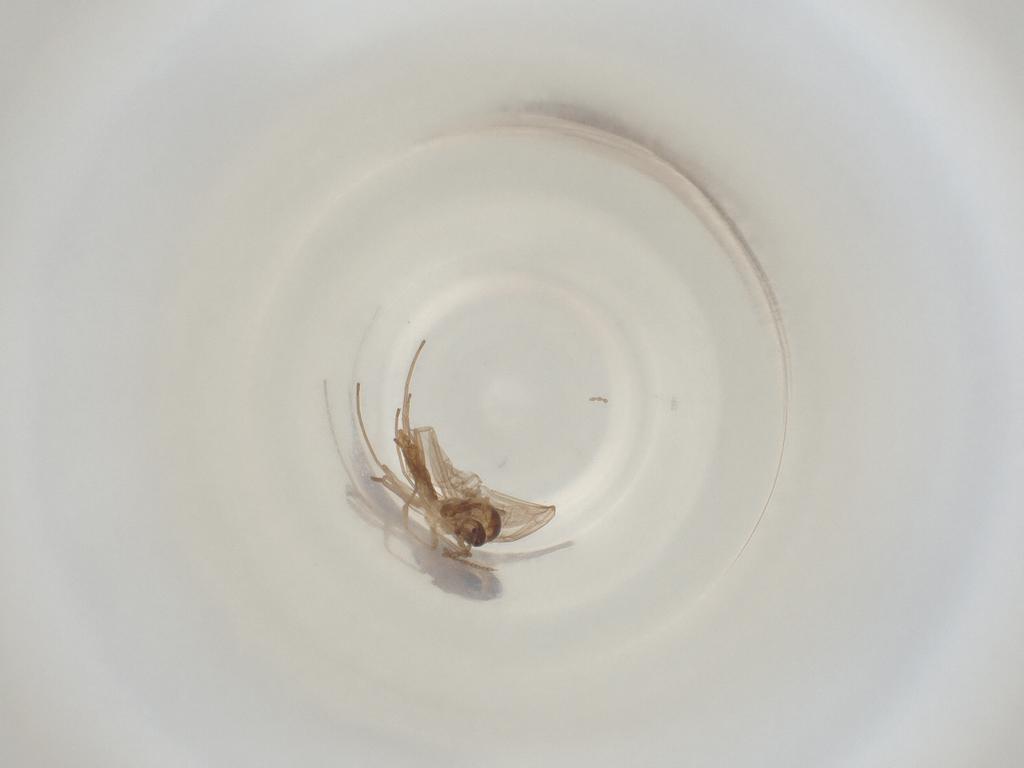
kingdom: Animalia
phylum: Arthropoda
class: Insecta
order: Diptera
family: Cecidomyiidae
